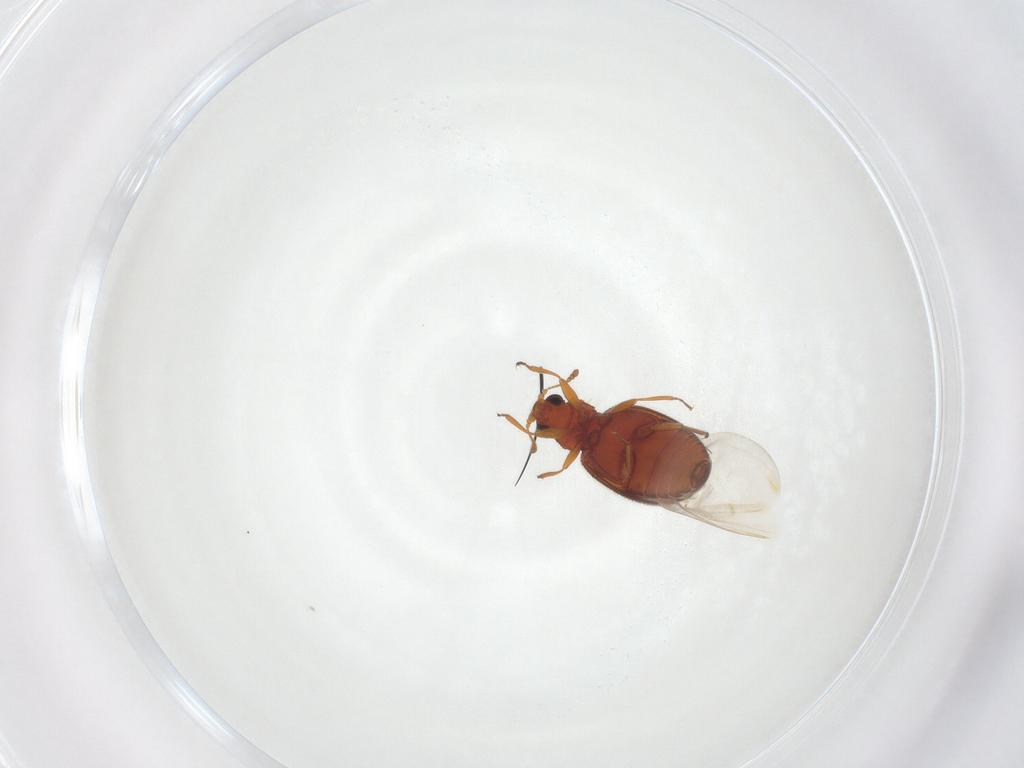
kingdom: Animalia
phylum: Arthropoda
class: Insecta
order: Coleoptera
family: Latridiidae
